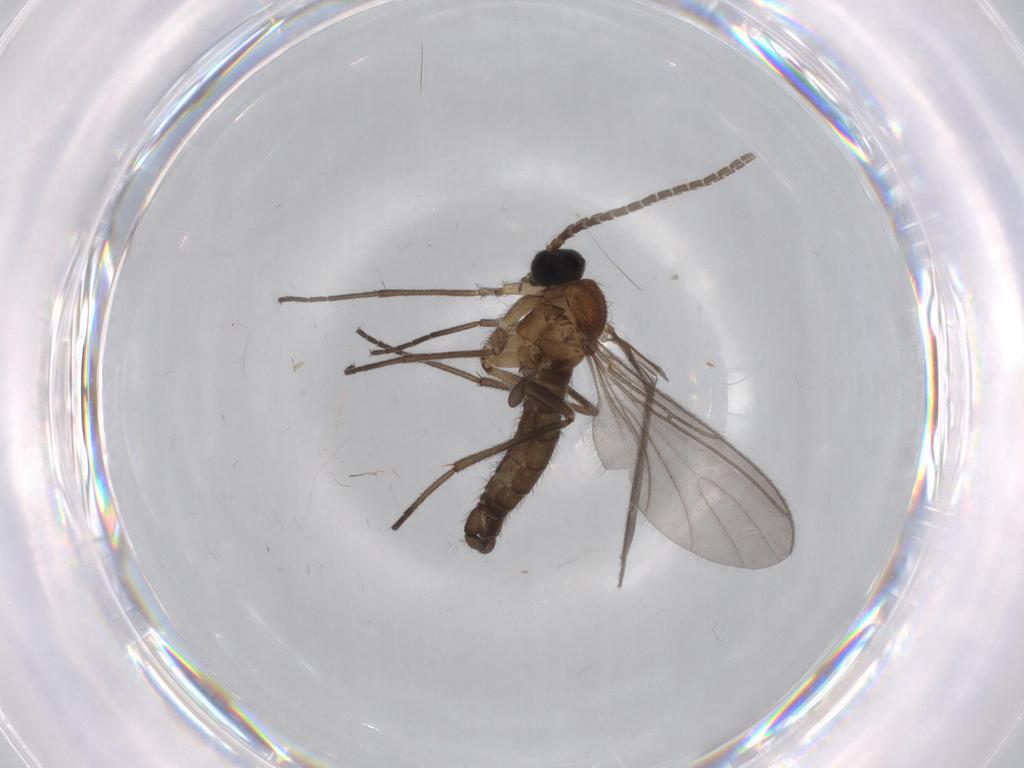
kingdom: Animalia
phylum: Arthropoda
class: Insecta
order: Diptera
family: Sciaridae
